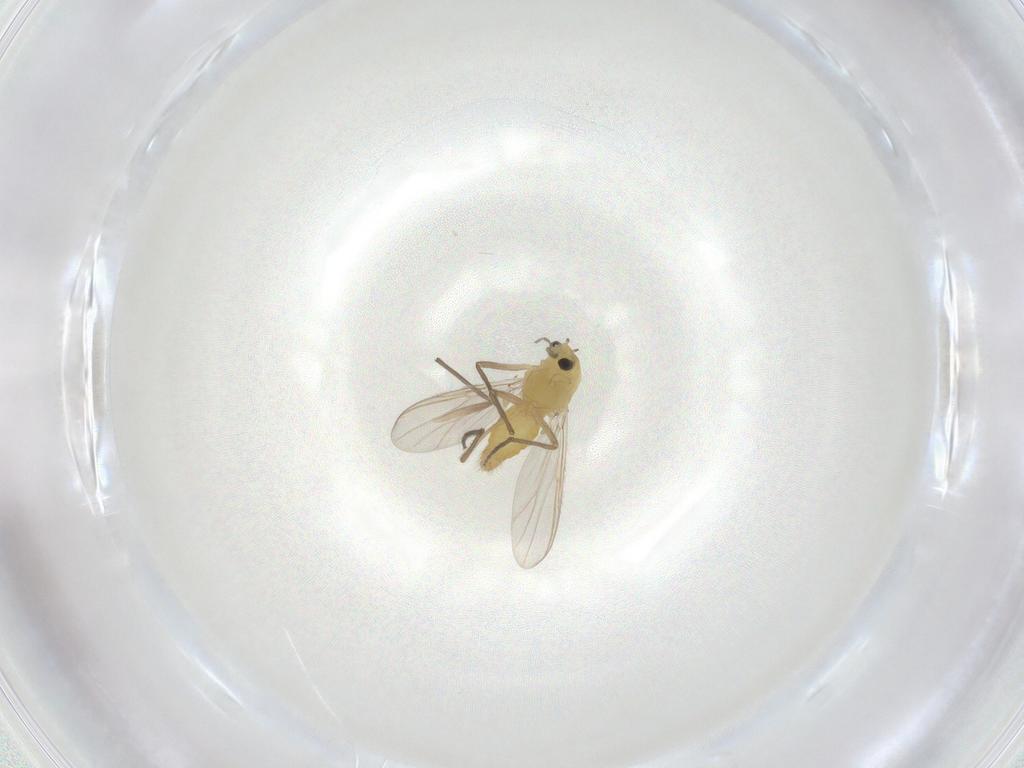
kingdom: Animalia
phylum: Arthropoda
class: Insecta
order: Diptera
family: Chironomidae
